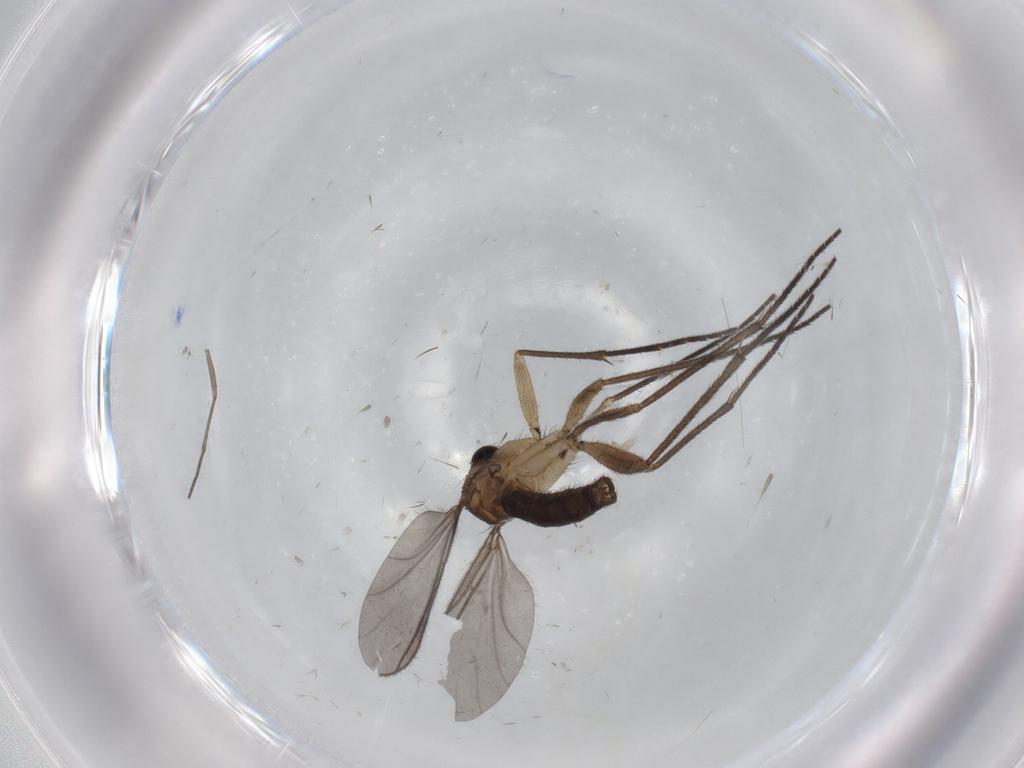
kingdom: Animalia
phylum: Arthropoda
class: Insecta
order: Diptera
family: Sciaridae
